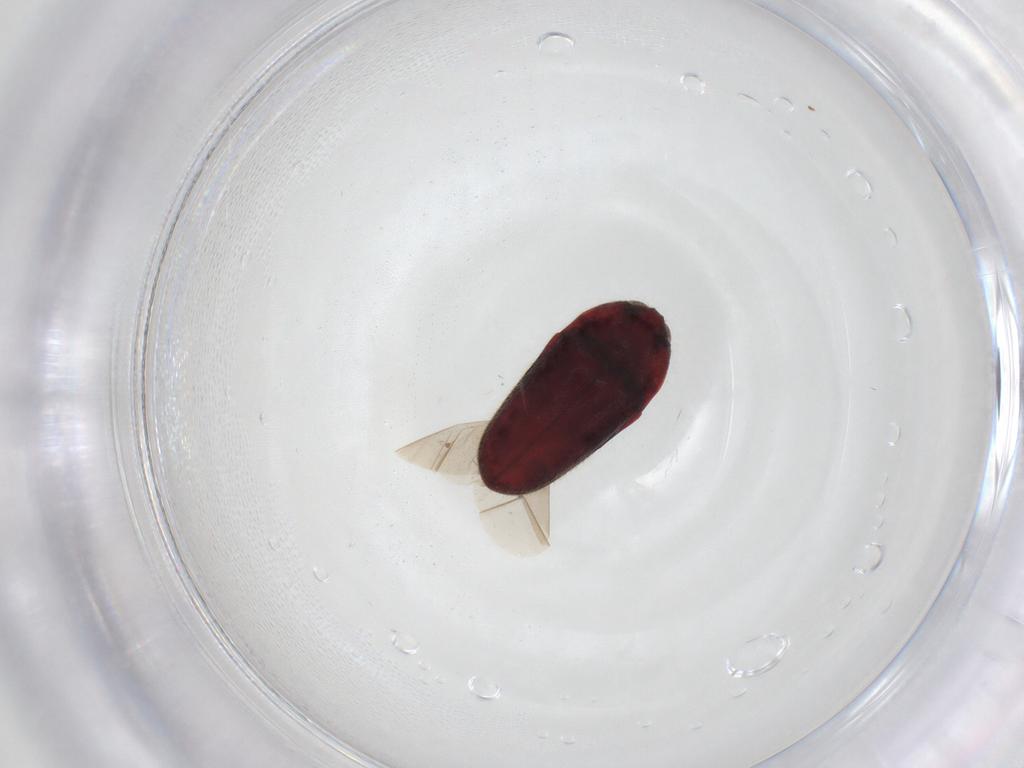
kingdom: Animalia
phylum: Arthropoda
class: Insecta
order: Coleoptera
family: Throscidae
